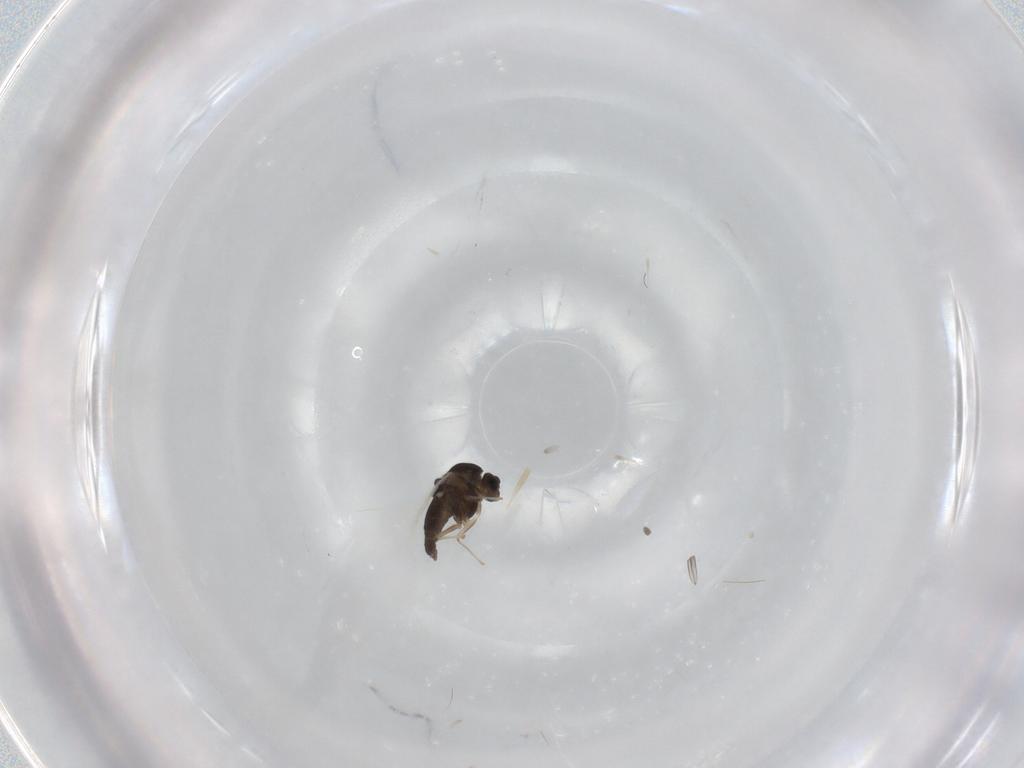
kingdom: Animalia
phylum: Arthropoda
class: Insecta
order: Diptera
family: Chironomidae
